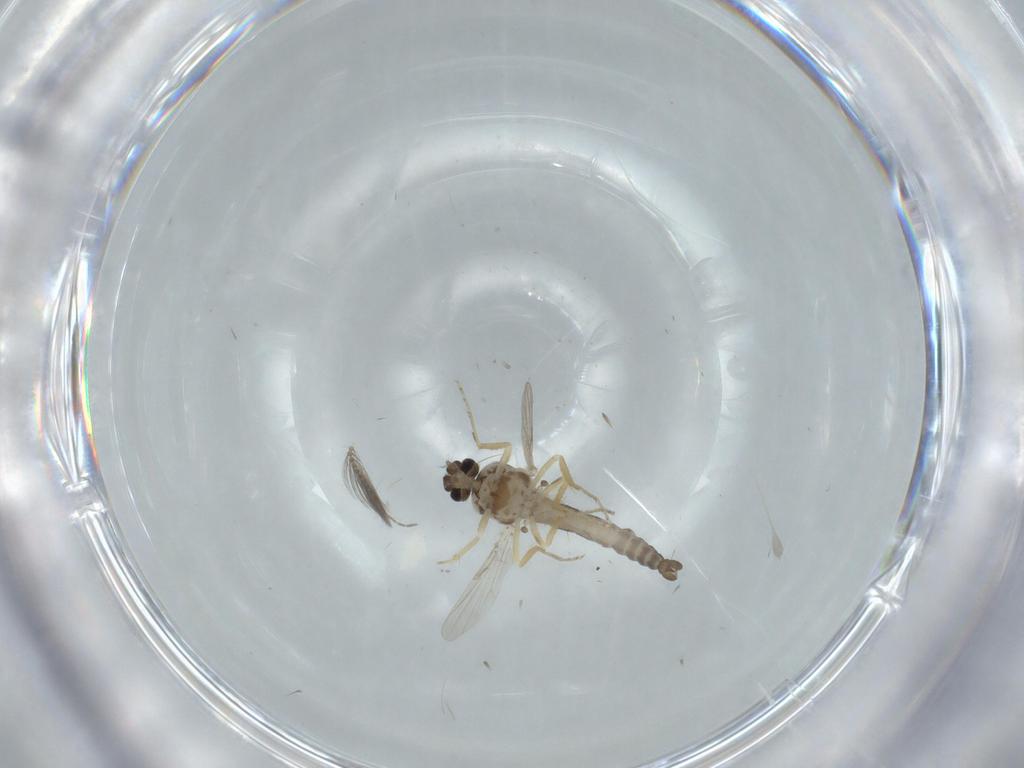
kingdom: Animalia
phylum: Arthropoda
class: Insecta
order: Diptera
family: Ceratopogonidae
